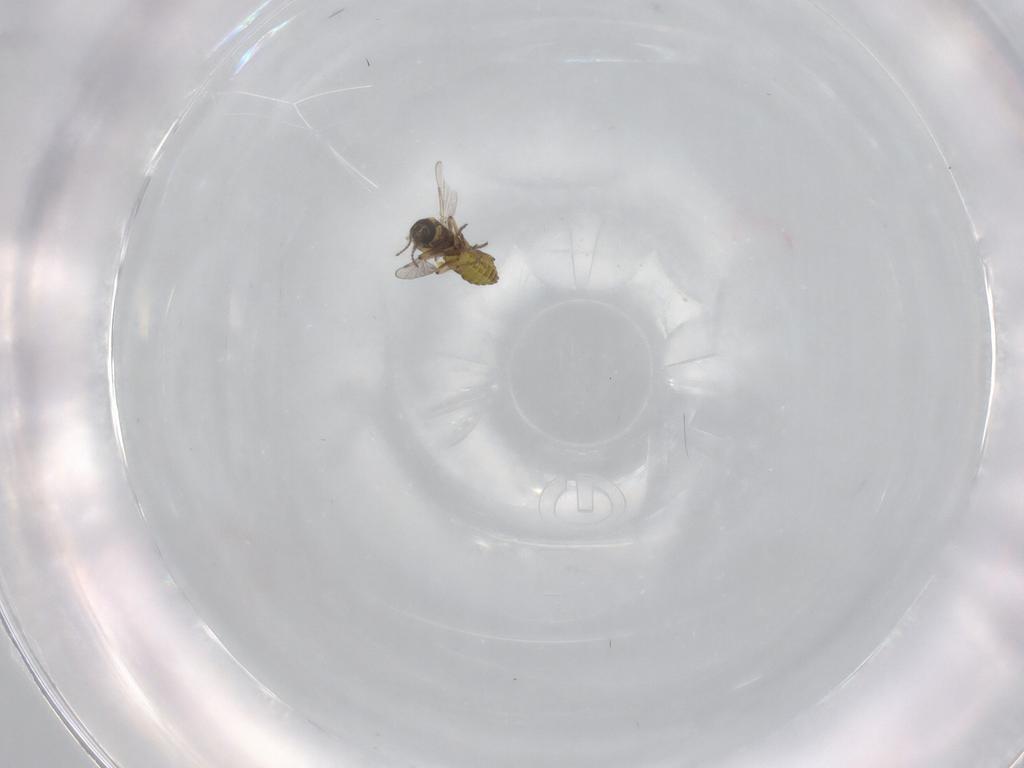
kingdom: Animalia
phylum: Arthropoda
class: Insecta
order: Diptera
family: Ceratopogonidae
